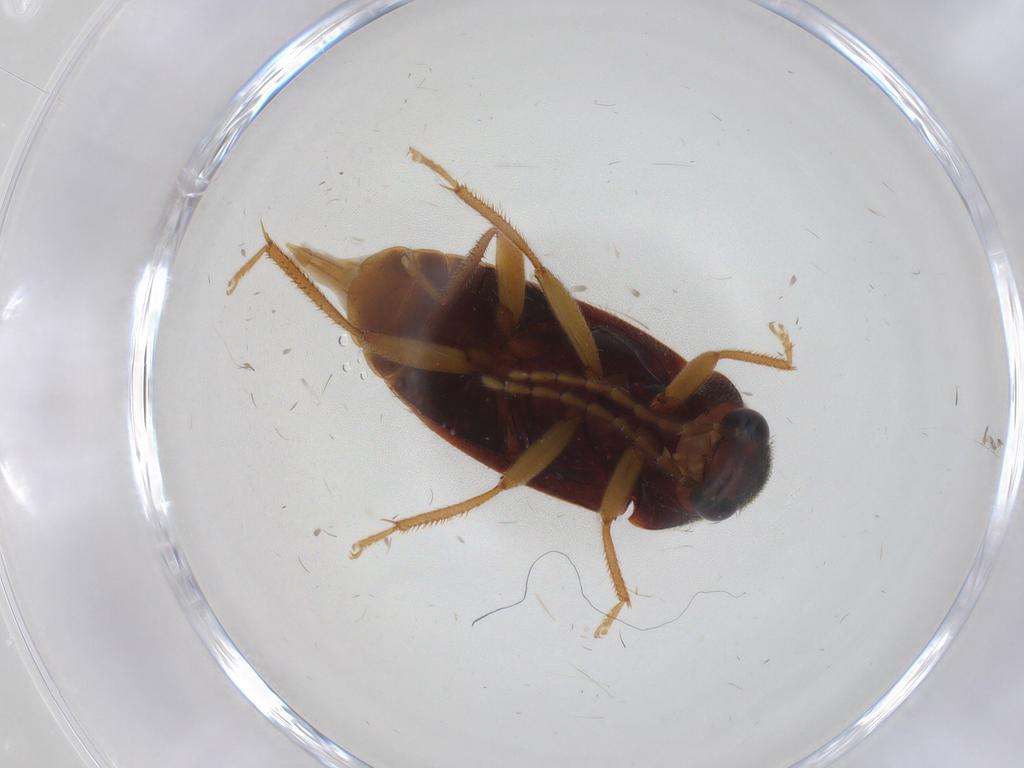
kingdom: Animalia
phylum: Arthropoda
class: Insecta
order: Coleoptera
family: Ptilodactylidae
